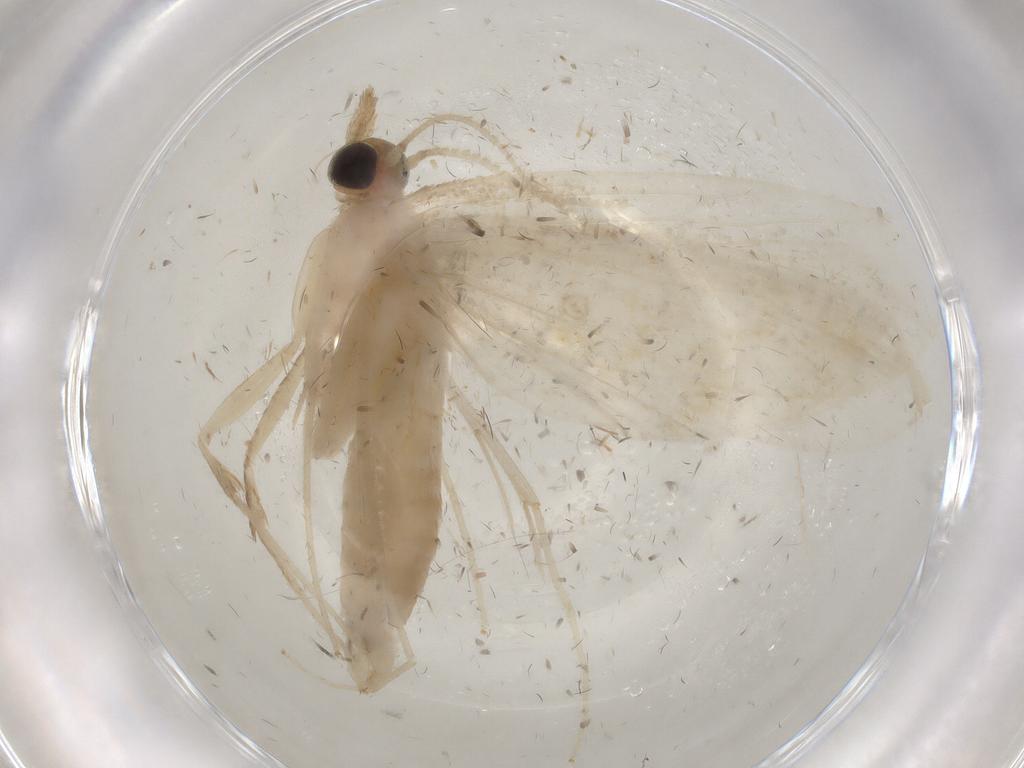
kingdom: Animalia
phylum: Arthropoda
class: Insecta
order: Lepidoptera
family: Crambidae
